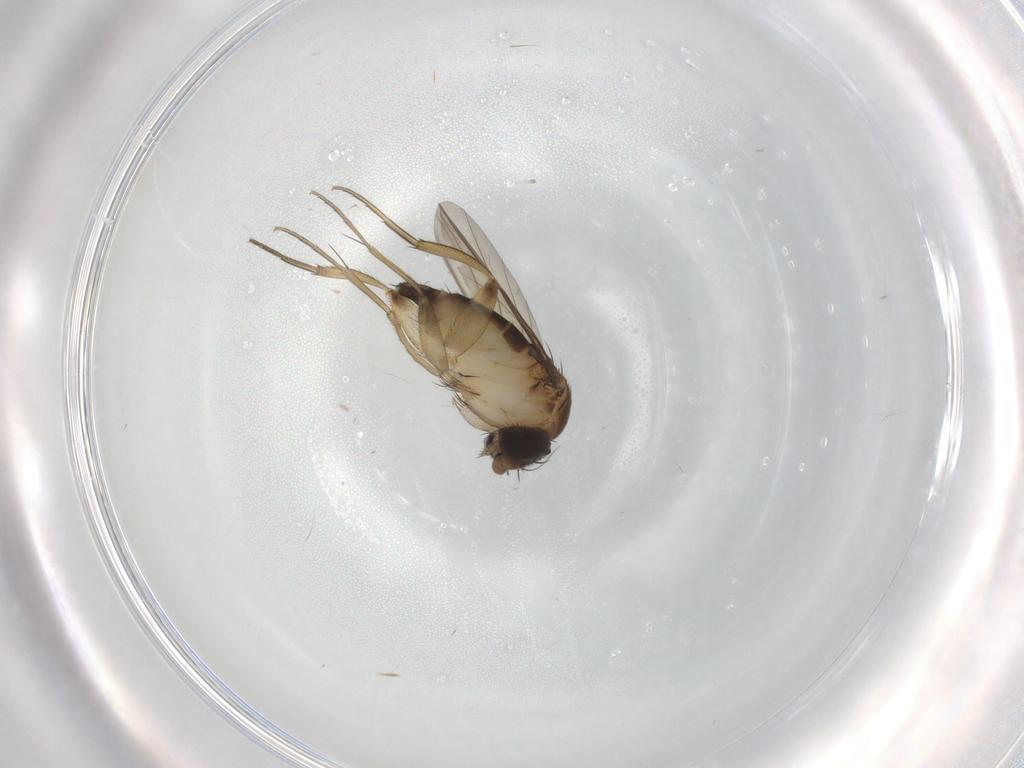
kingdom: Animalia
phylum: Arthropoda
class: Insecta
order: Diptera
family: Phoridae
